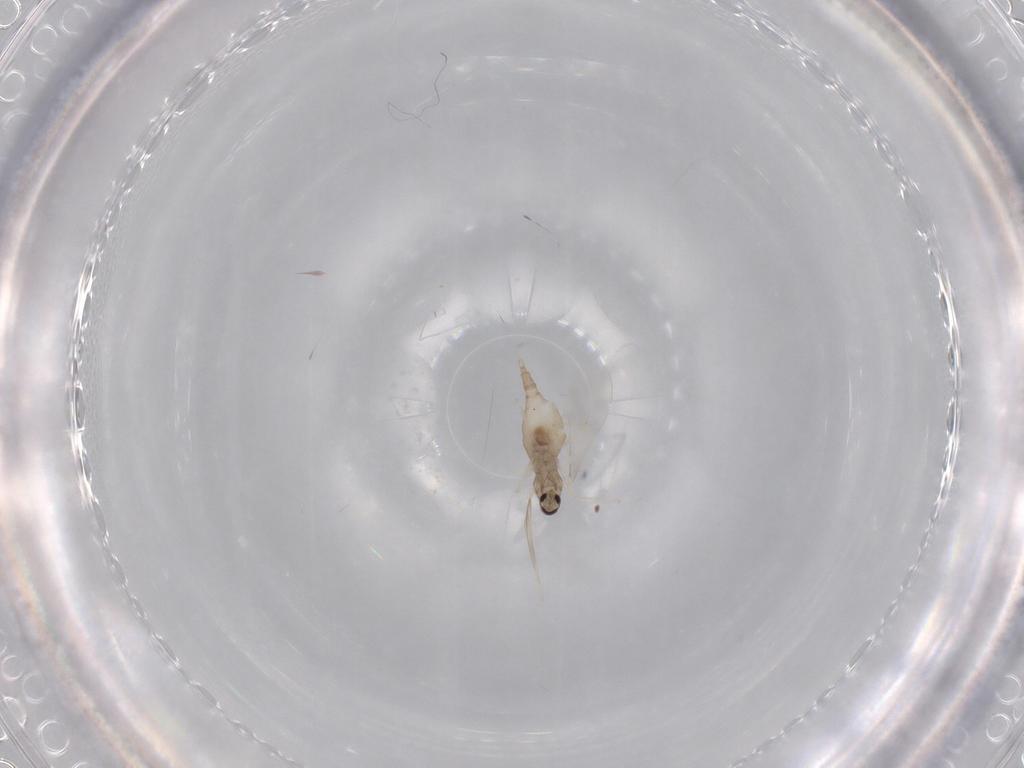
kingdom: Animalia
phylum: Arthropoda
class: Insecta
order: Diptera
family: Cecidomyiidae
